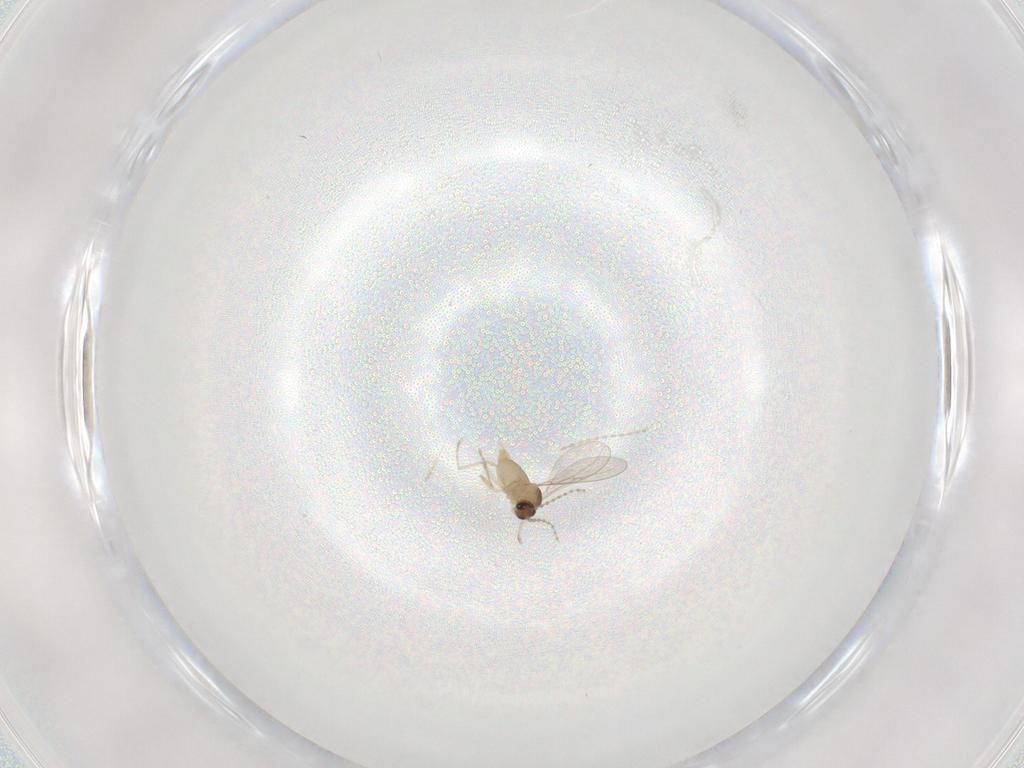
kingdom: Animalia
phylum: Arthropoda
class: Insecta
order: Diptera
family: Cecidomyiidae
